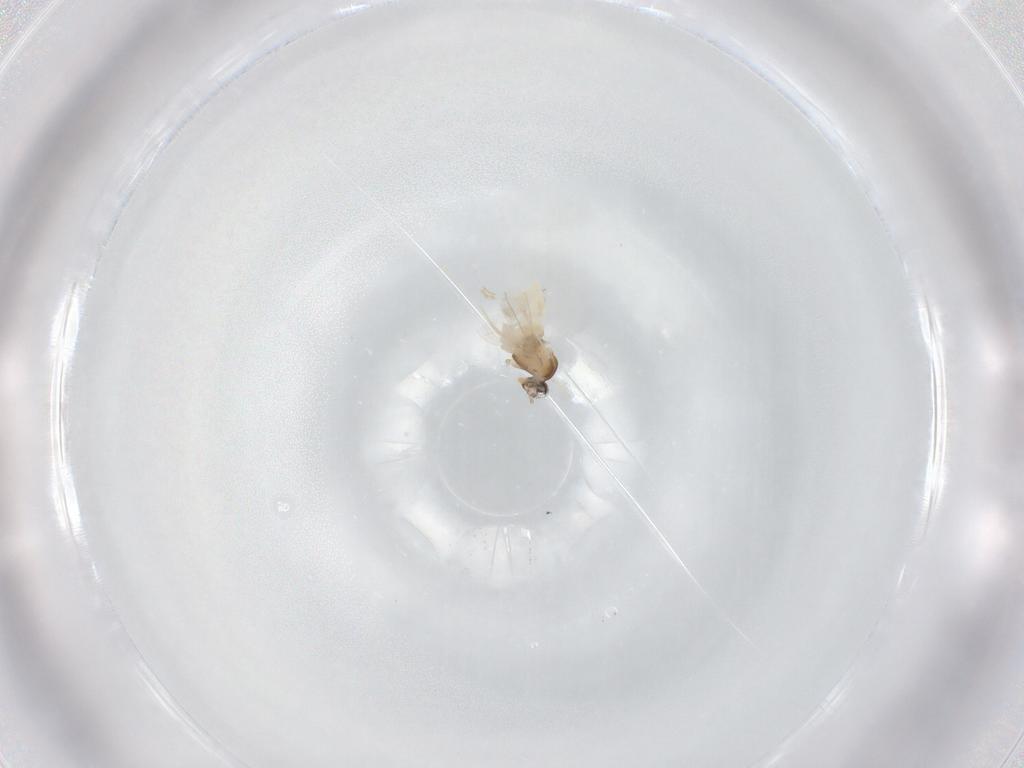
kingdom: Animalia
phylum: Arthropoda
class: Insecta
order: Diptera
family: Cecidomyiidae
